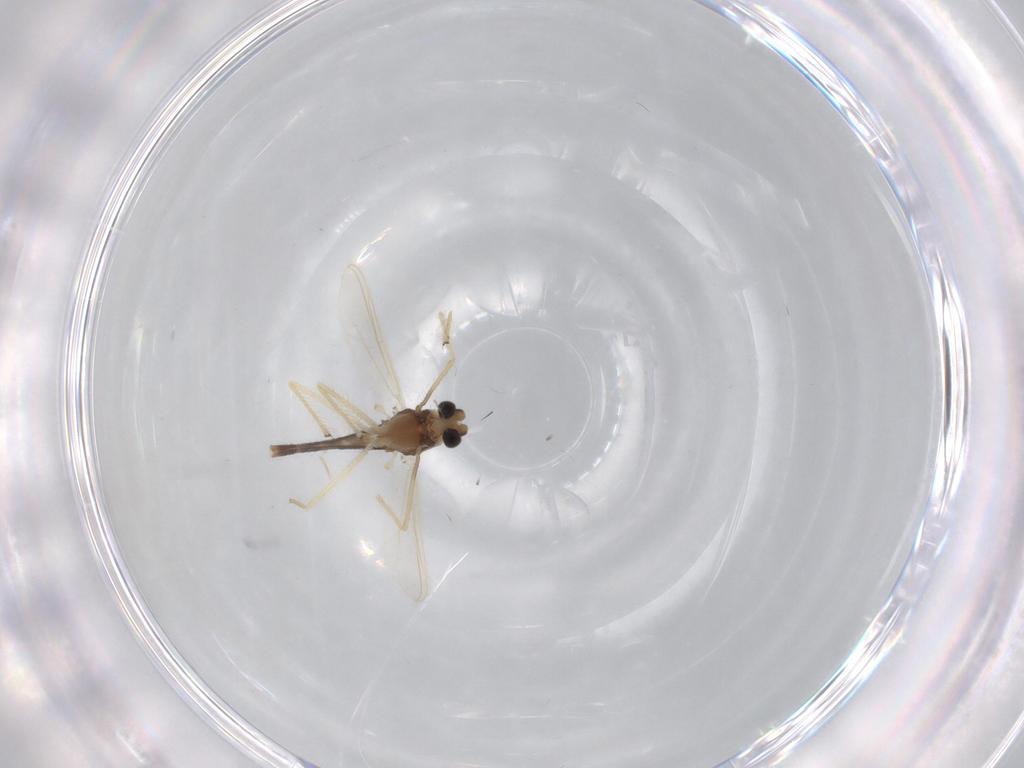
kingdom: Animalia
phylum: Arthropoda
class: Insecta
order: Diptera
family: Chironomidae
